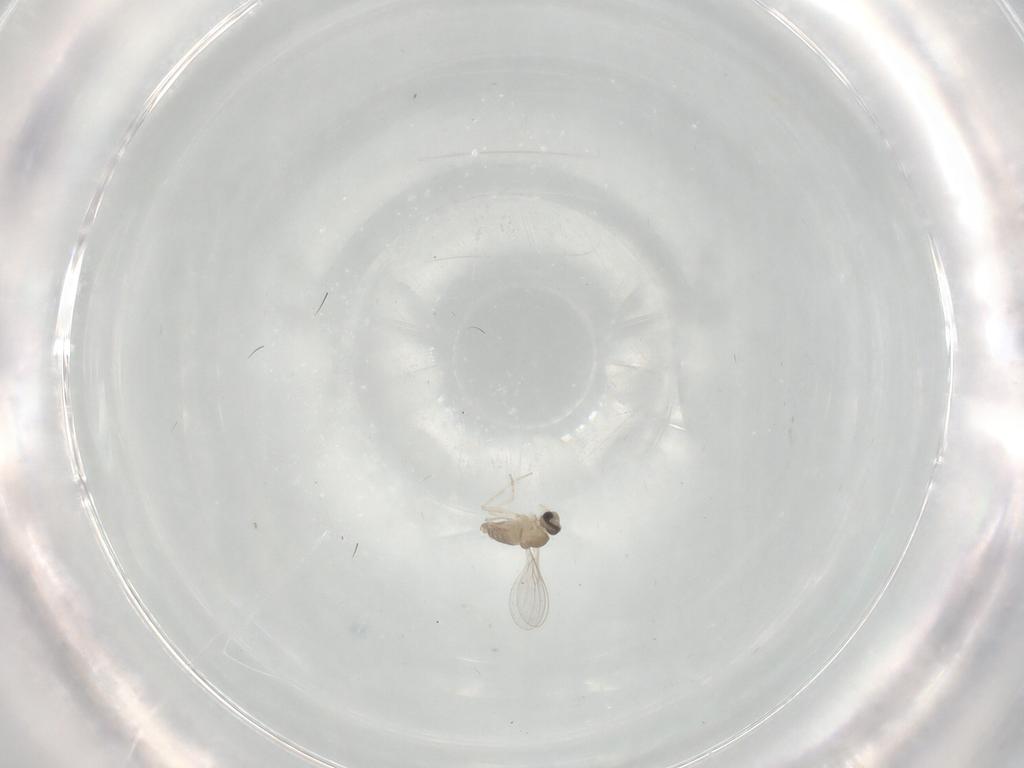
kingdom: Animalia
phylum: Arthropoda
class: Insecta
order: Diptera
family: Cecidomyiidae
